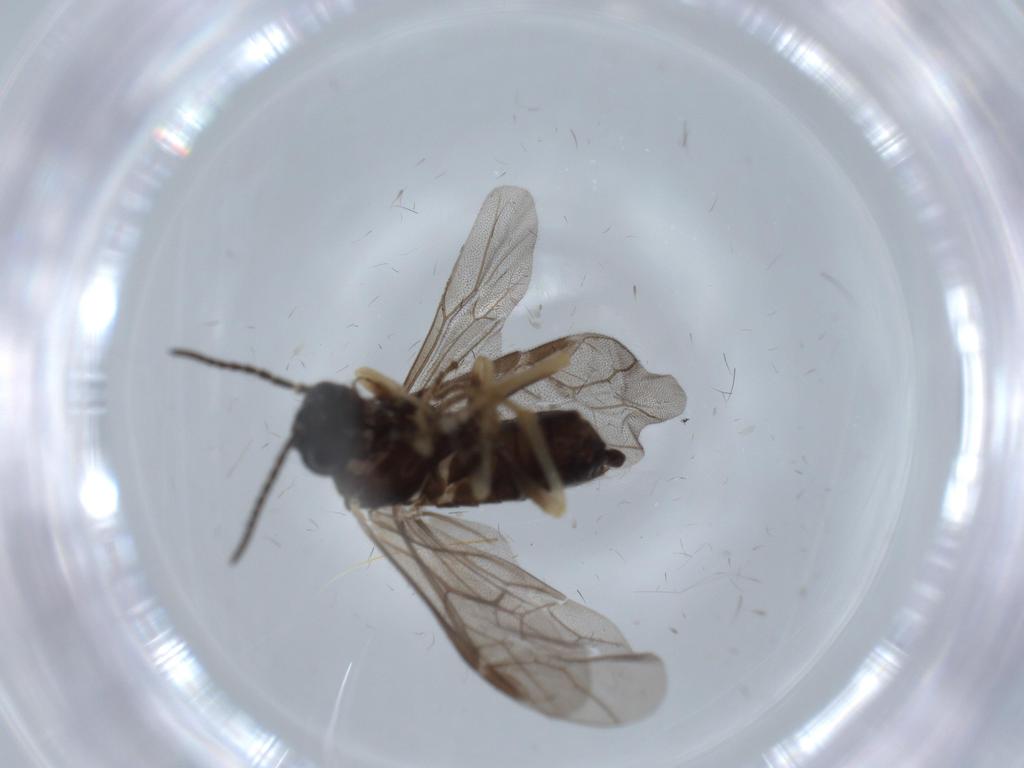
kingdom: Animalia
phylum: Arthropoda
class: Insecta
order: Hymenoptera
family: Tenthredinidae
